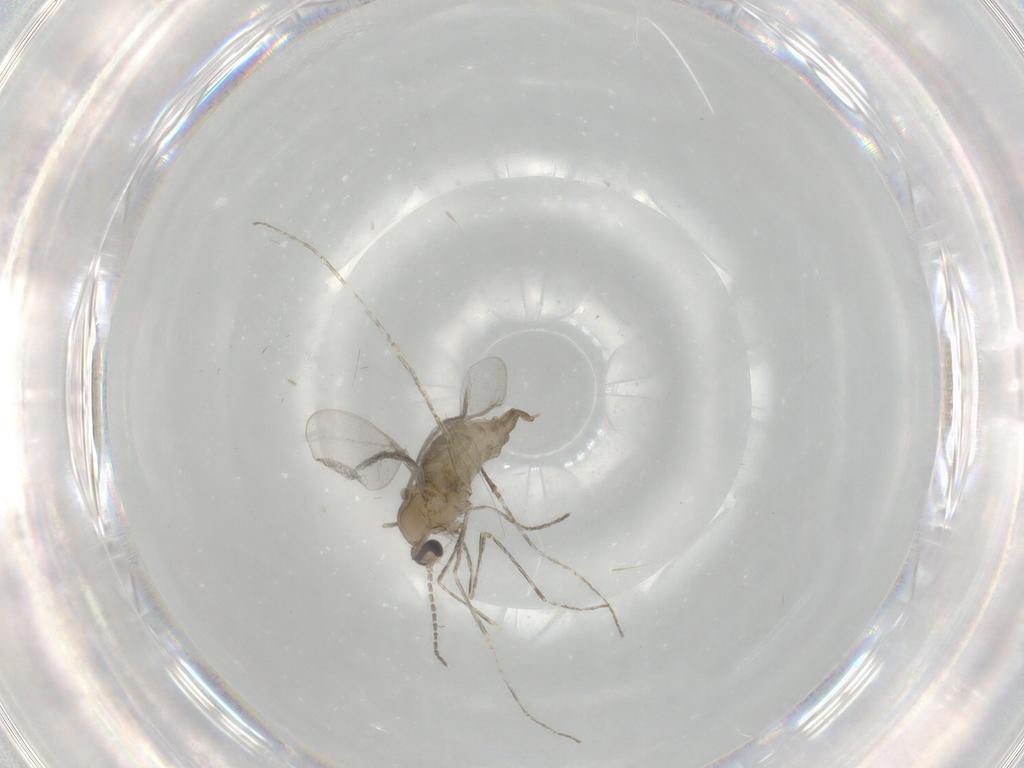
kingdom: Animalia
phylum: Arthropoda
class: Insecta
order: Diptera
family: Cecidomyiidae
